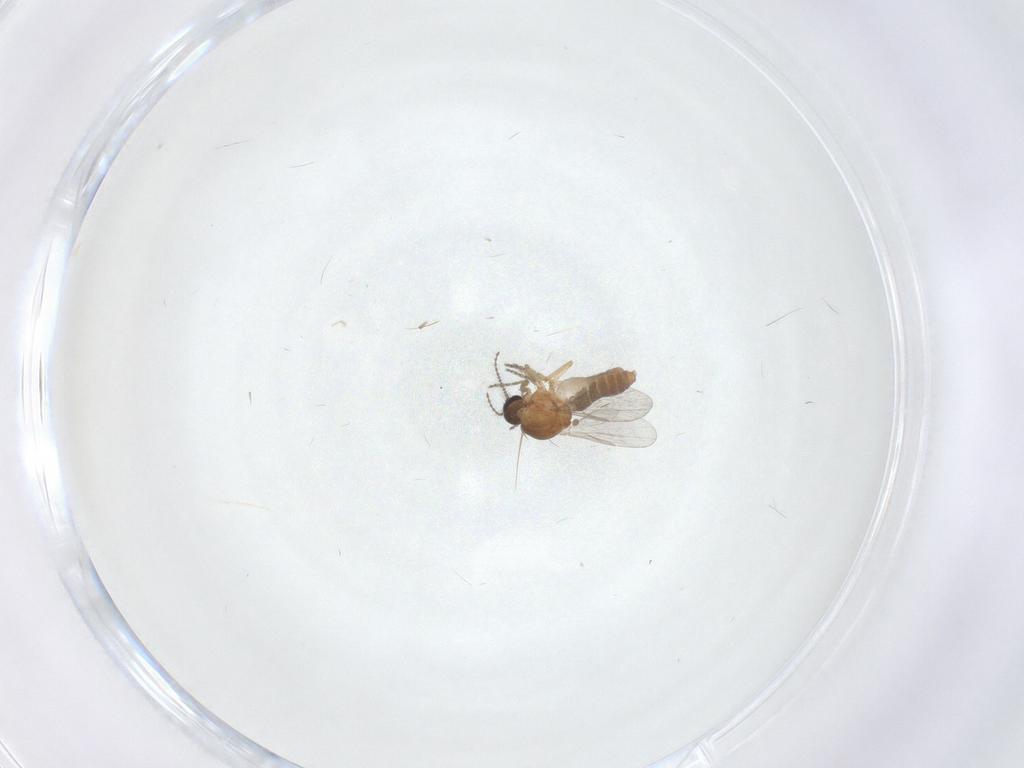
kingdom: Animalia
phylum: Arthropoda
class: Insecta
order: Diptera
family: Ceratopogonidae
